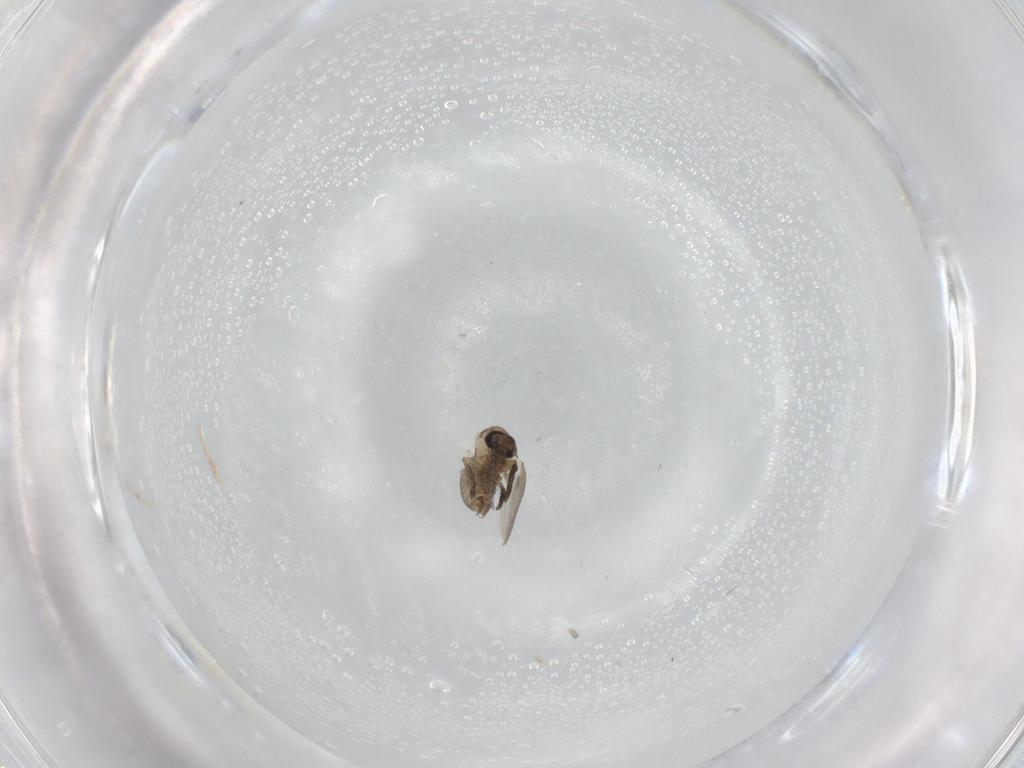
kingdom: Animalia
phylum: Arthropoda
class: Insecta
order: Diptera
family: Psychodidae
